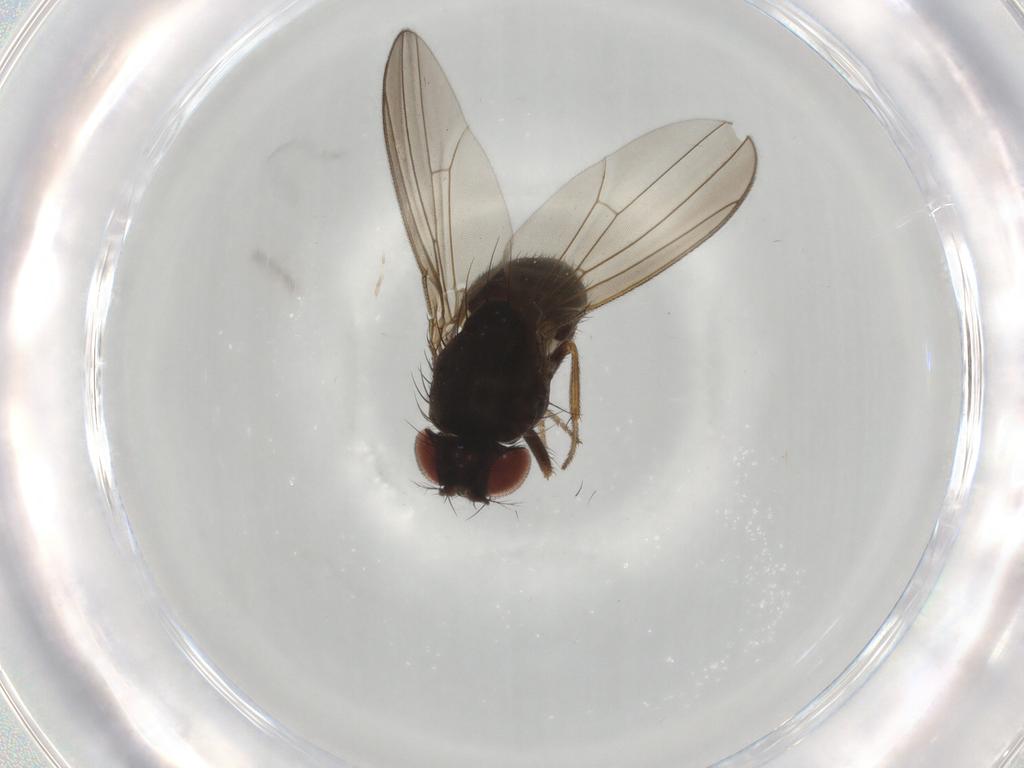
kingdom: Animalia
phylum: Arthropoda
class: Insecta
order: Diptera
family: Drosophilidae
